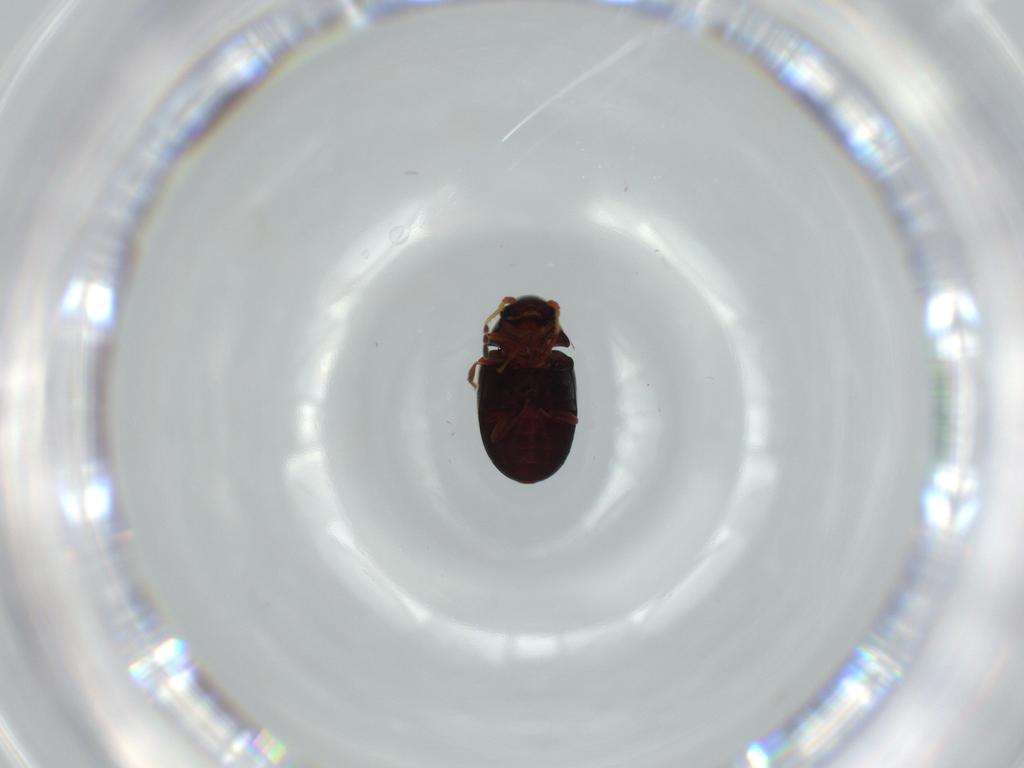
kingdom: Animalia
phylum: Arthropoda
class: Insecta
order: Coleoptera
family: Ptinidae
